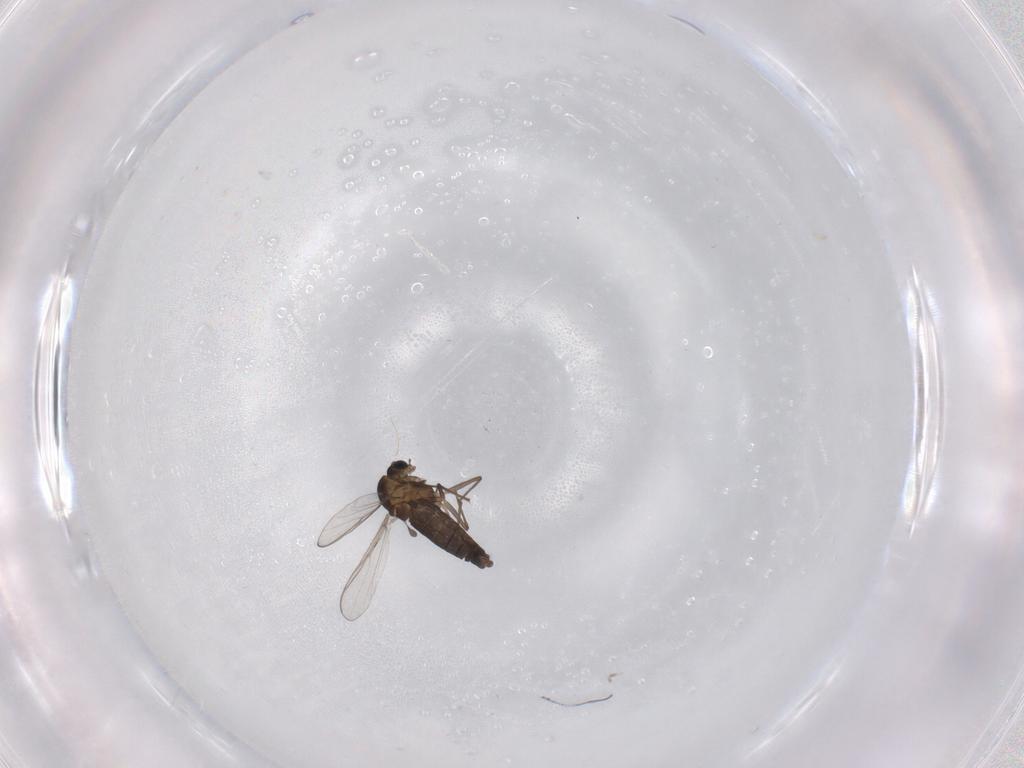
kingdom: Animalia
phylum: Arthropoda
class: Insecta
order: Diptera
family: Chironomidae
